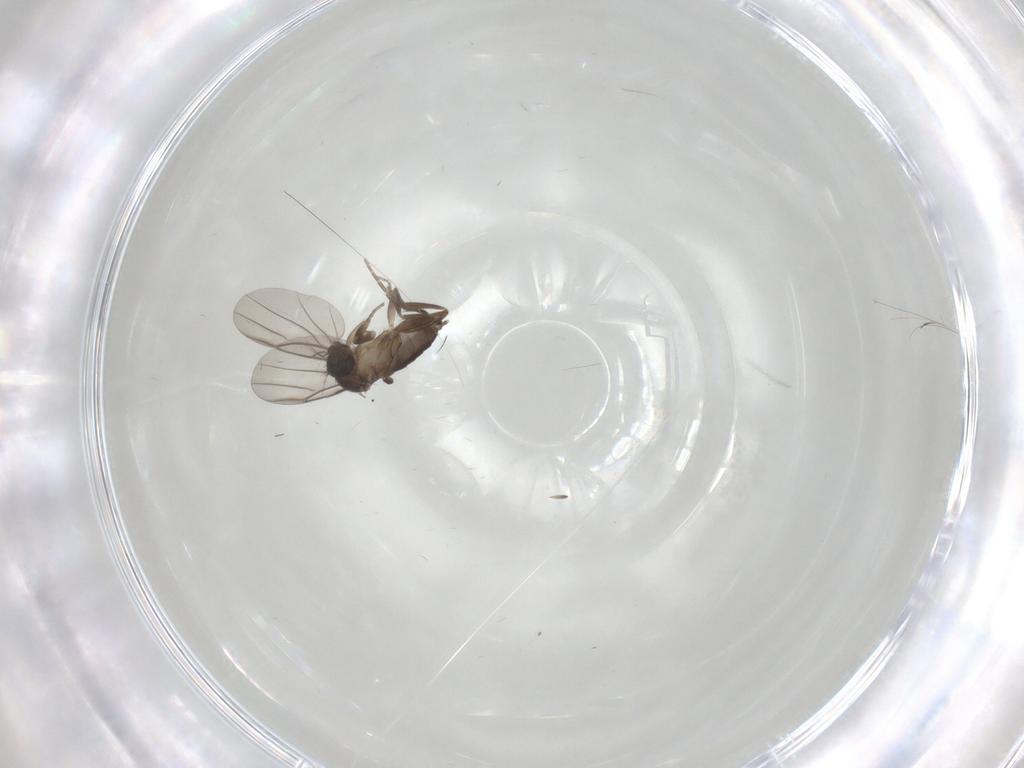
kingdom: Animalia
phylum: Arthropoda
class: Insecta
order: Diptera
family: Phoridae
